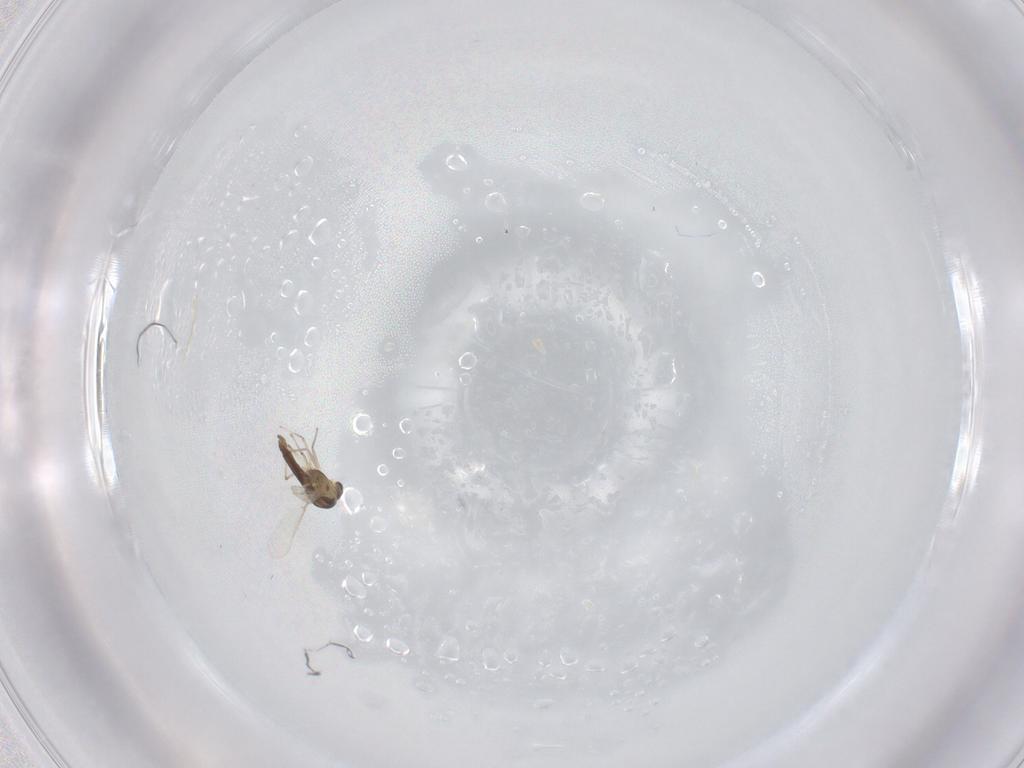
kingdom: Animalia
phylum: Arthropoda
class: Insecta
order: Diptera
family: Chironomidae
